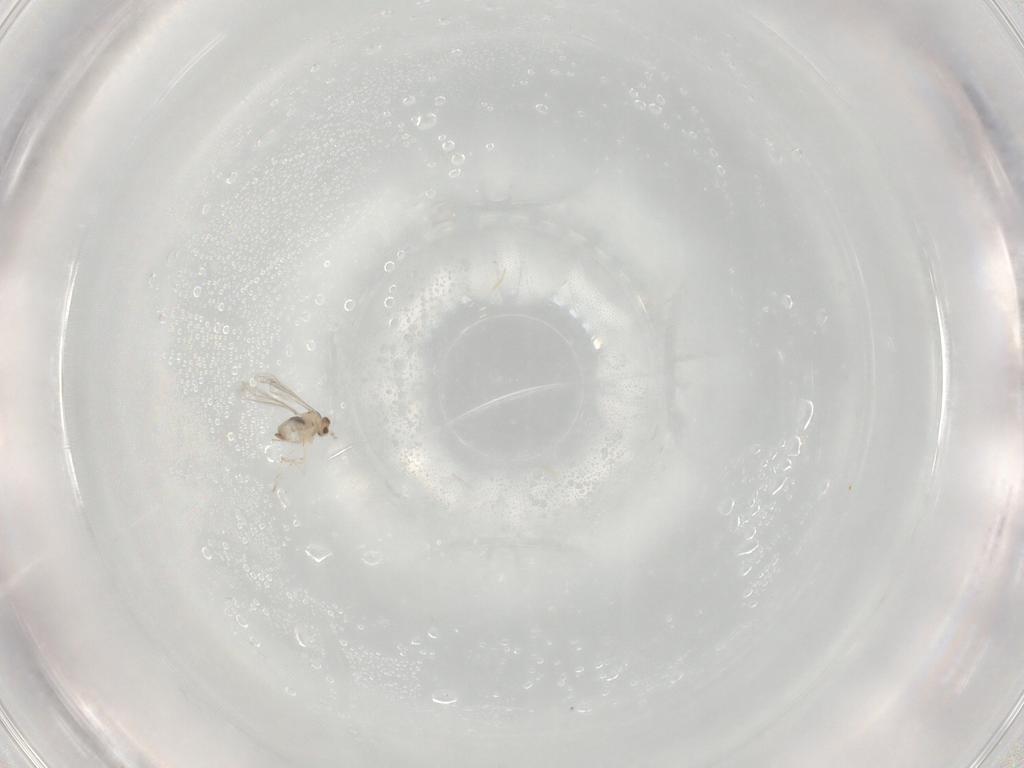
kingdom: Animalia
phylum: Arthropoda
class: Insecta
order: Diptera
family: Cecidomyiidae
